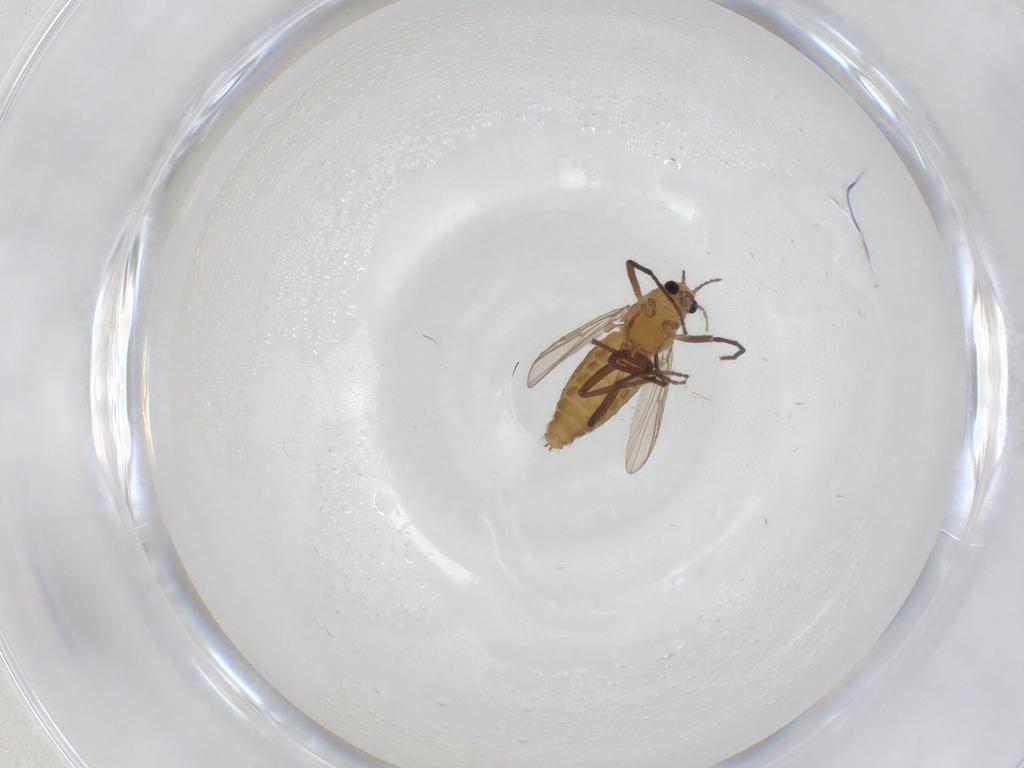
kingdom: Animalia
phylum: Arthropoda
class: Insecta
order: Diptera
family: Chironomidae
